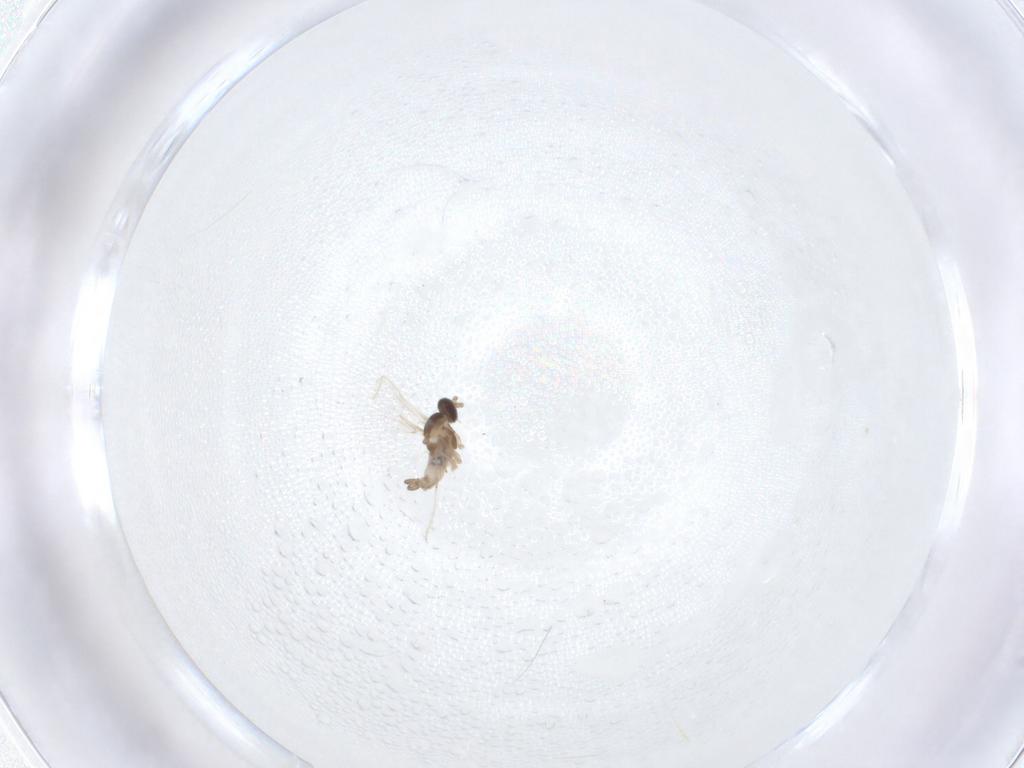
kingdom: Animalia
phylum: Arthropoda
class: Insecta
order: Diptera
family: Cecidomyiidae
